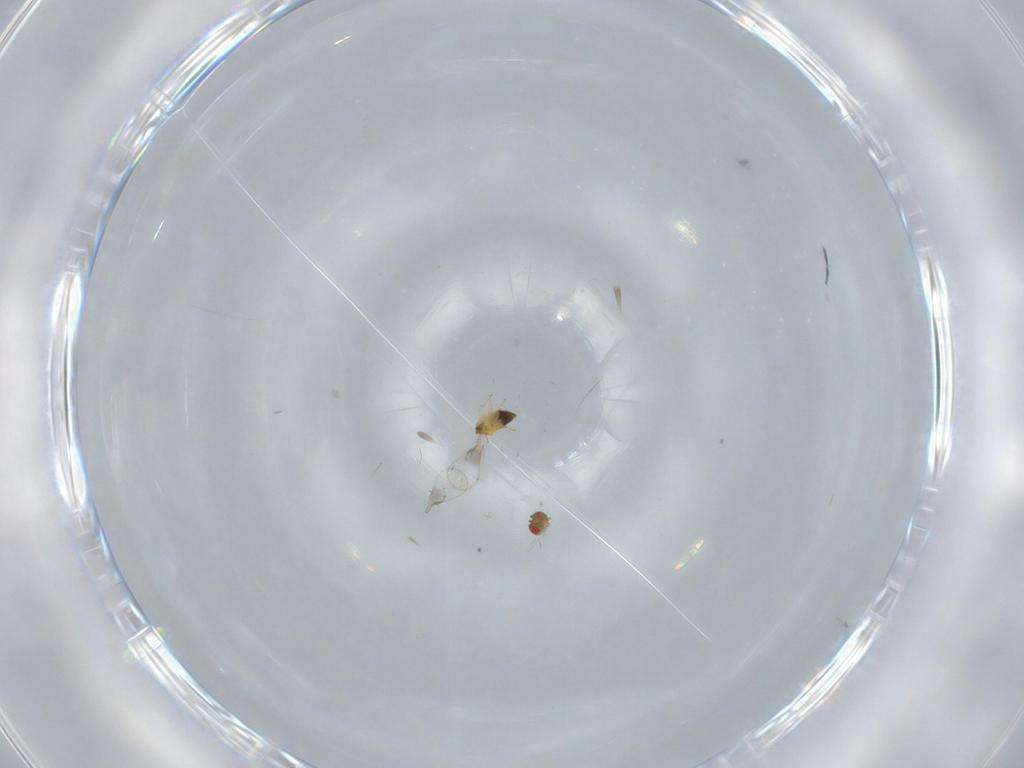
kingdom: Animalia
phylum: Arthropoda
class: Insecta
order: Hymenoptera
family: Trichogrammatidae
